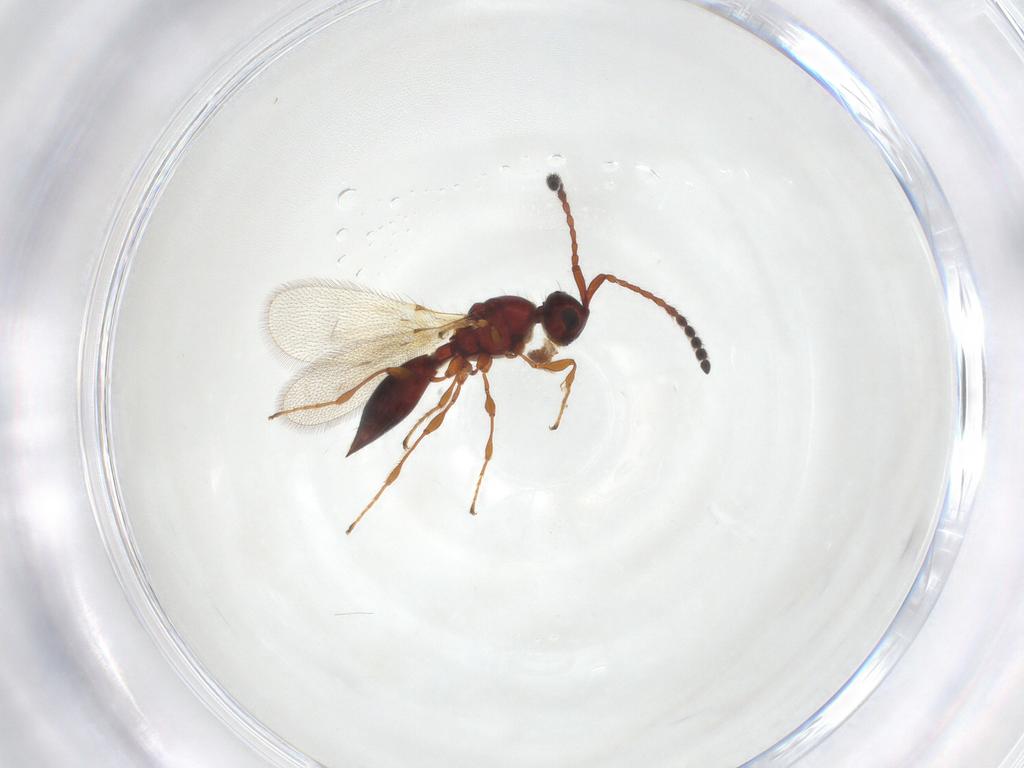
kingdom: Animalia
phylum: Arthropoda
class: Insecta
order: Hymenoptera
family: Diapriidae
